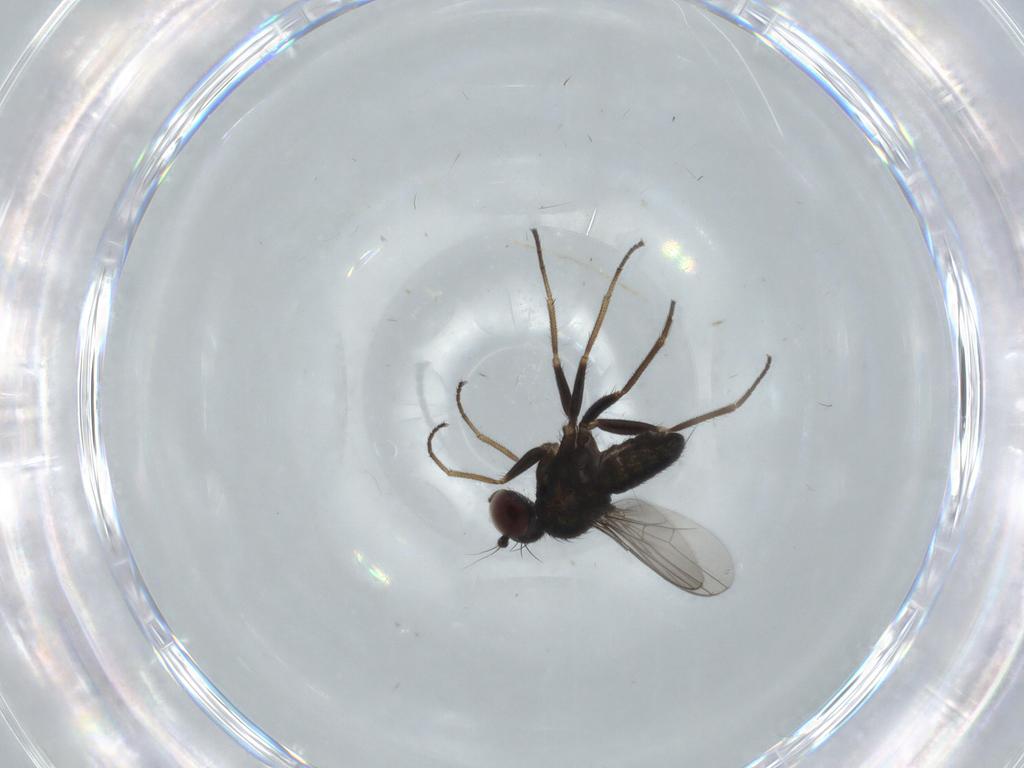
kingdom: Animalia
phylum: Arthropoda
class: Insecta
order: Diptera
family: Dolichopodidae
